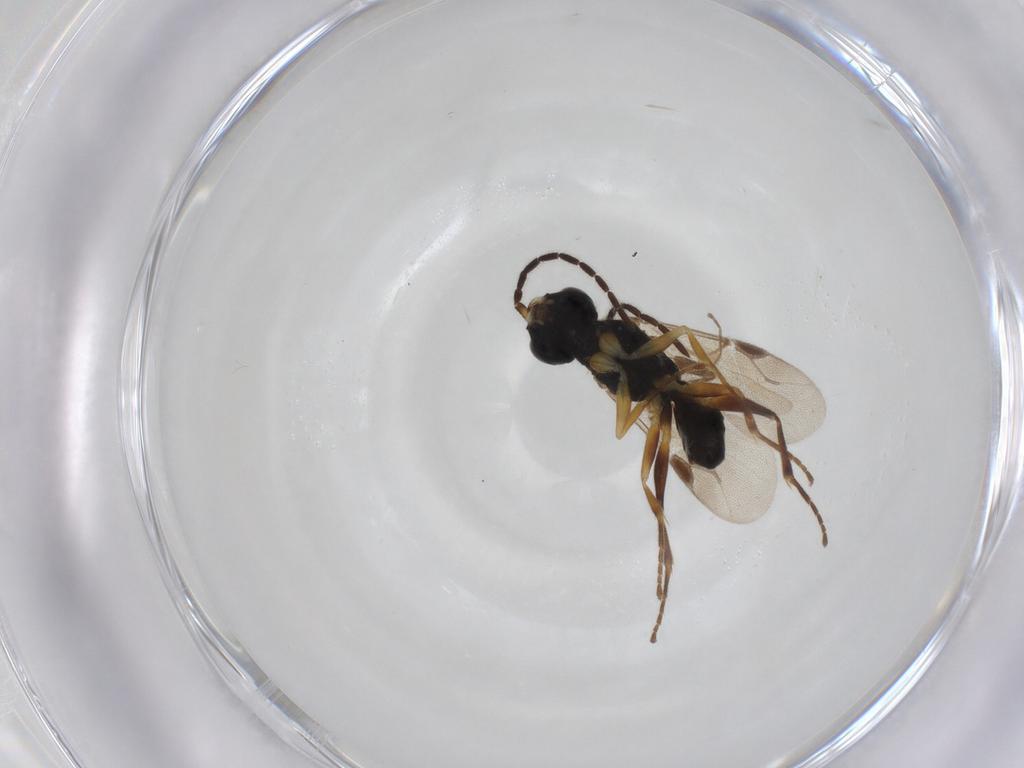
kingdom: Animalia
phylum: Arthropoda
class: Insecta
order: Hymenoptera
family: Dryinidae
